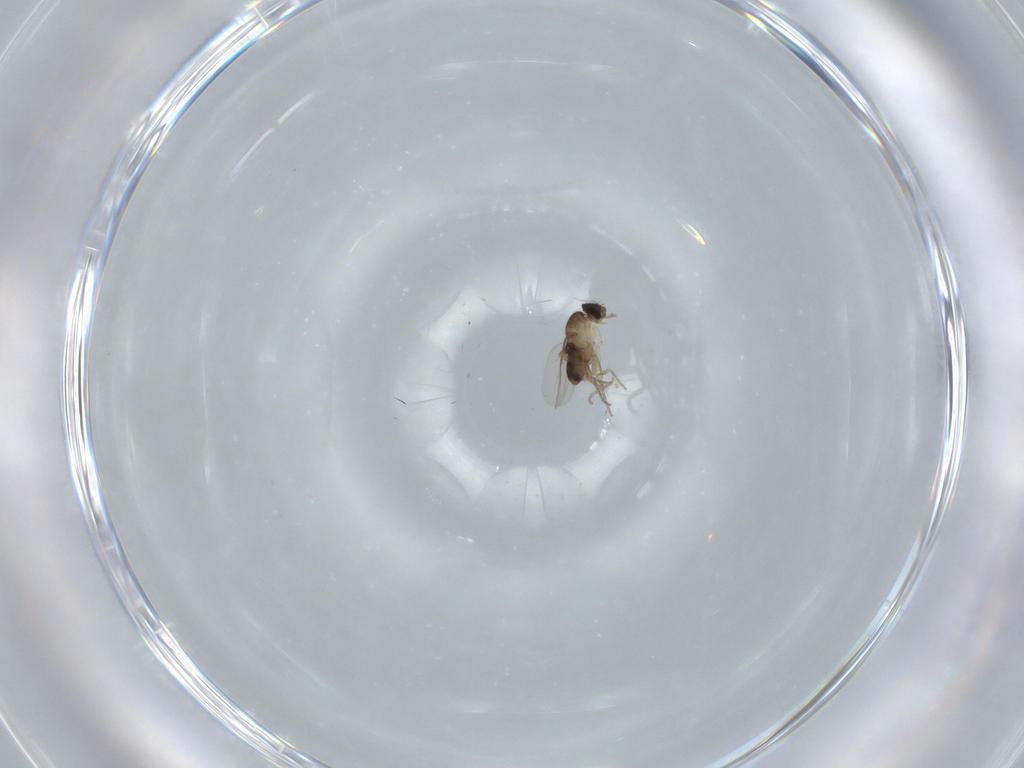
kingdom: Animalia
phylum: Arthropoda
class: Insecta
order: Diptera
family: Phoridae
